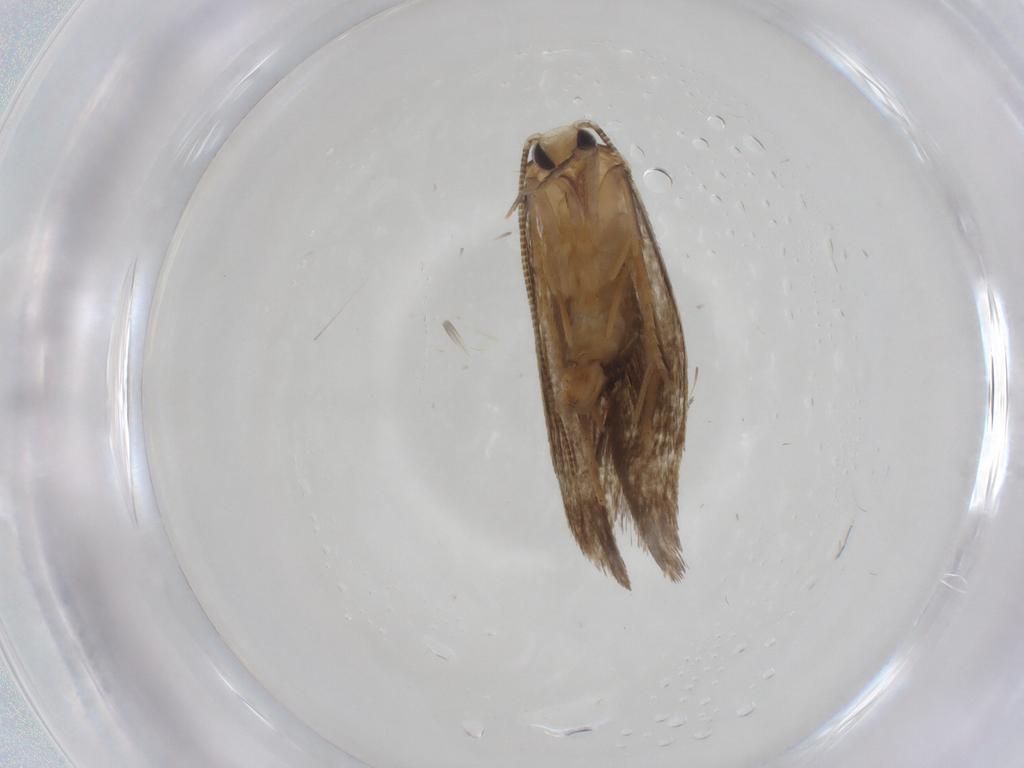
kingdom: Animalia
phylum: Arthropoda
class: Insecta
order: Lepidoptera
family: Tineidae
